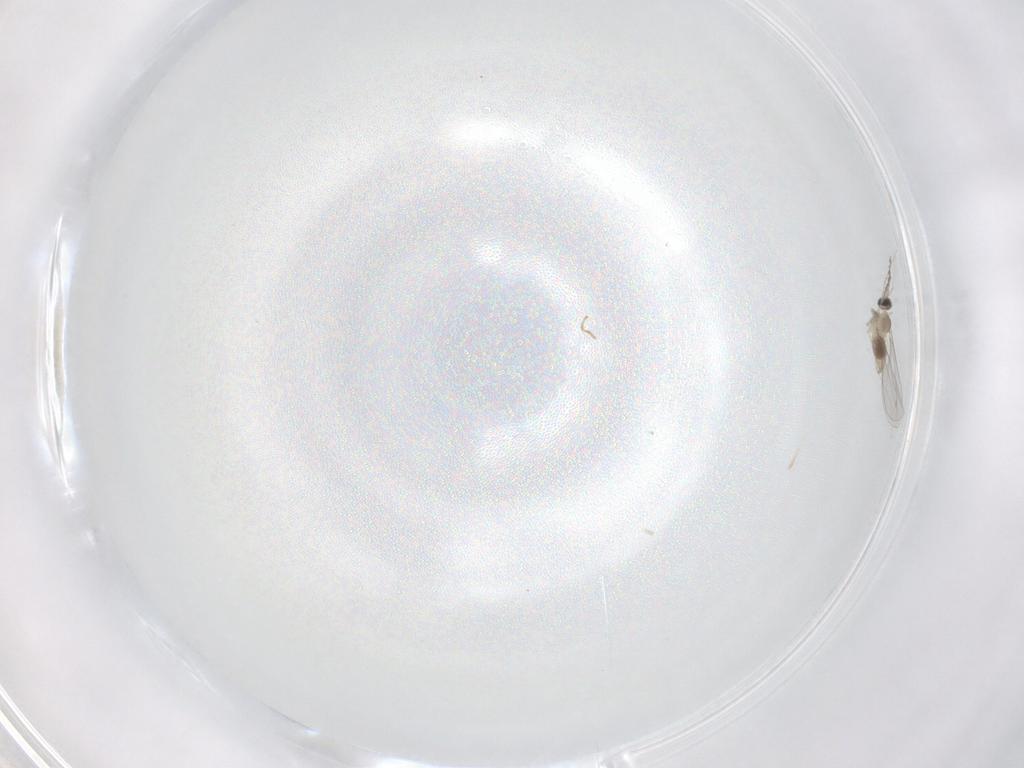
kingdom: Animalia
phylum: Arthropoda
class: Insecta
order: Diptera
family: Cecidomyiidae
